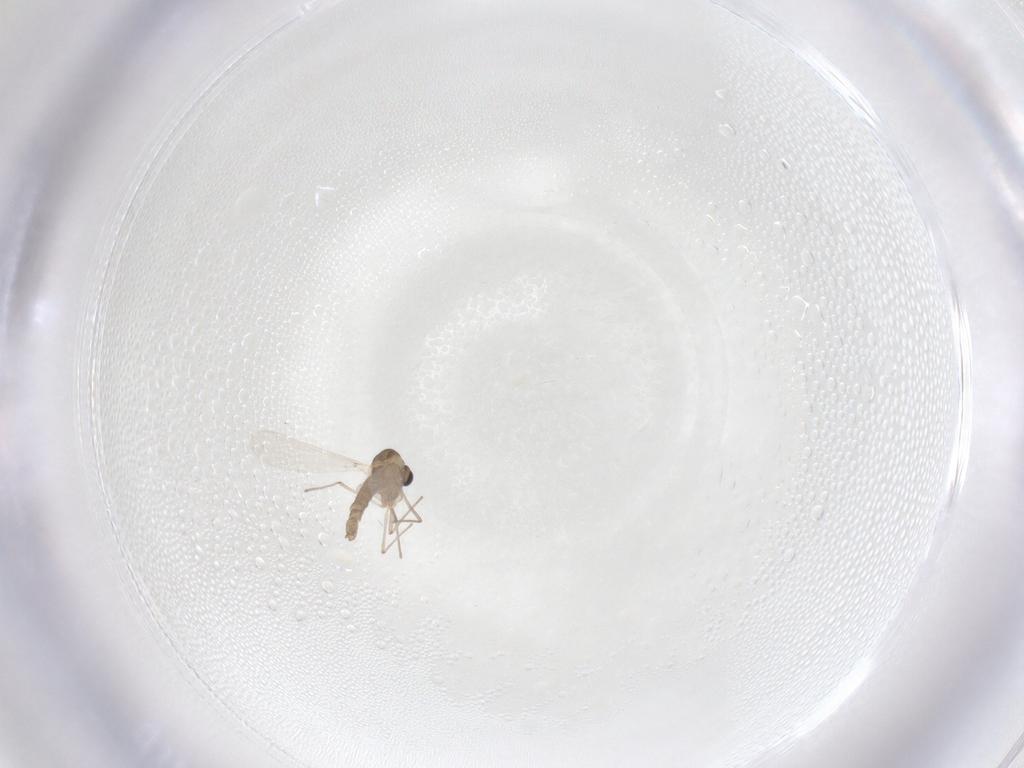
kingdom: Animalia
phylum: Arthropoda
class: Insecta
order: Diptera
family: Chironomidae
